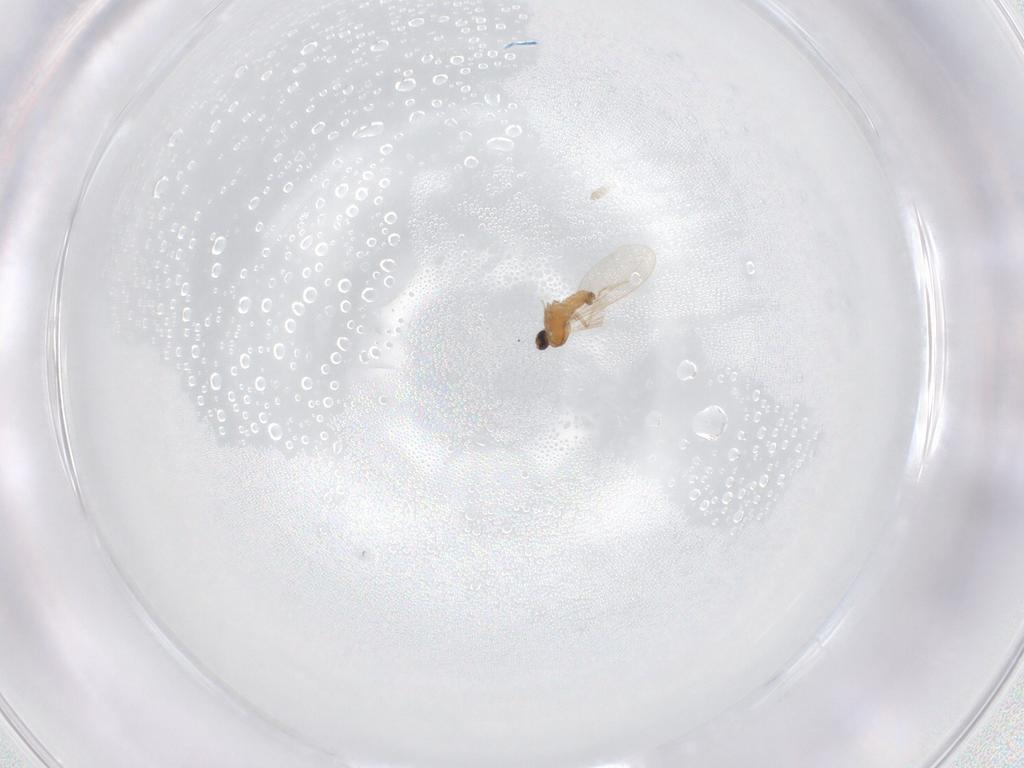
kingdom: Animalia
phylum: Arthropoda
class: Insecta
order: Diptera
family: Cecidomyiidae
